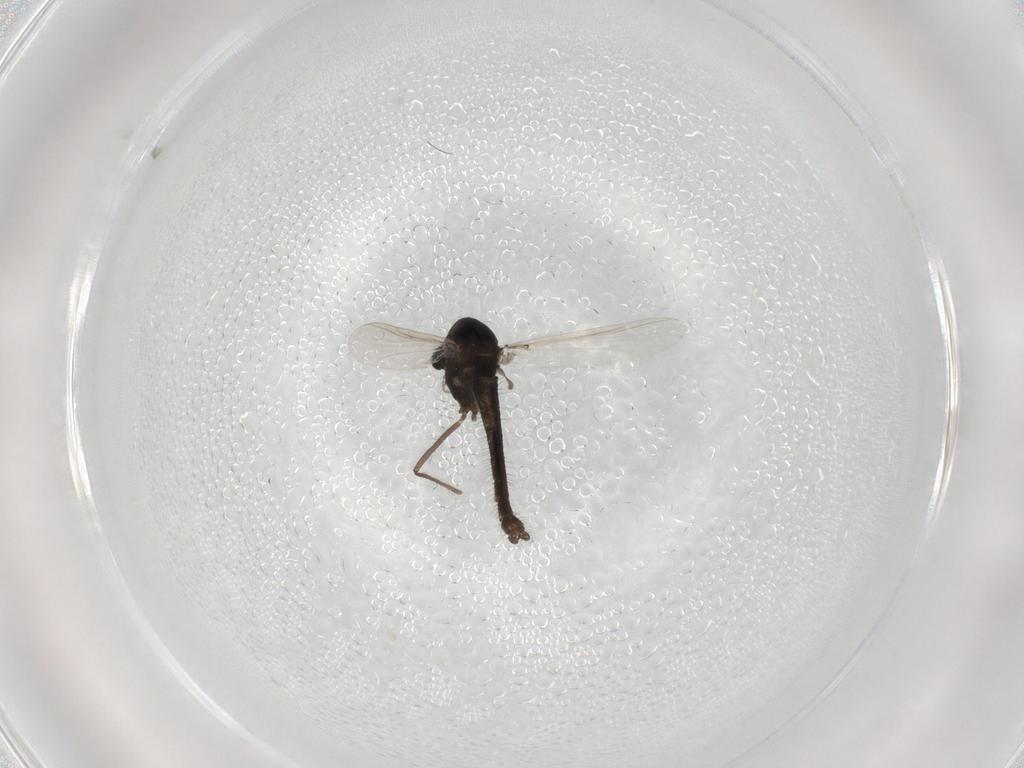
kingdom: Animalia
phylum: Arthropoda
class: Insecta
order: Diptera
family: Chironomidae
